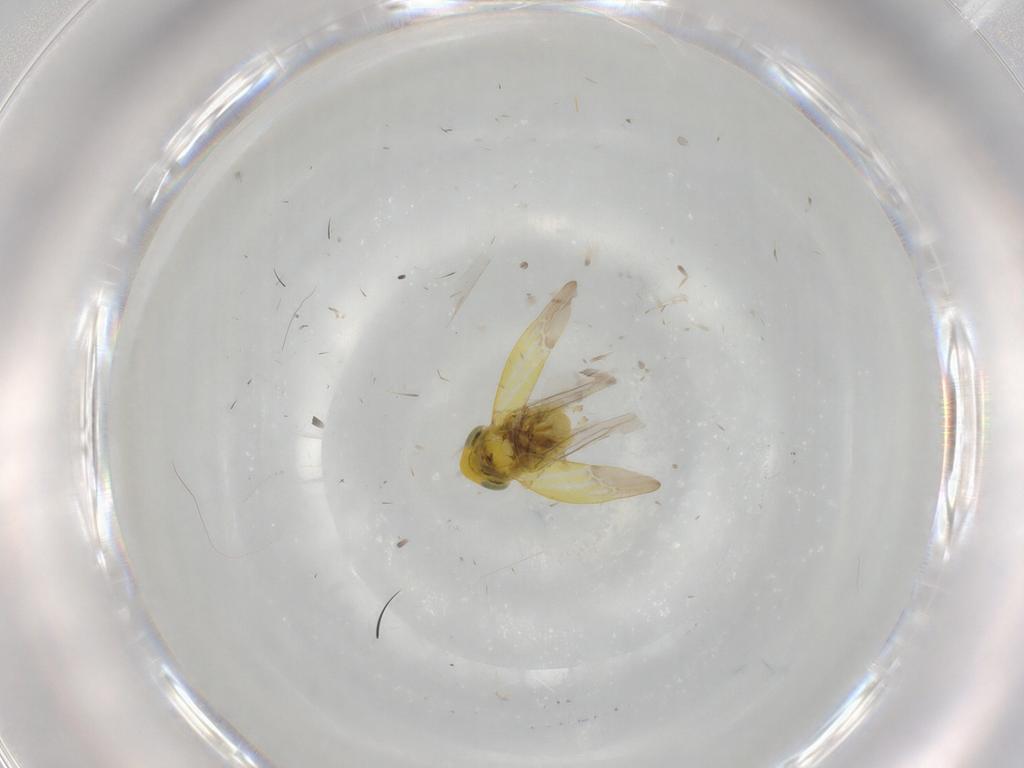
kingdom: Animalia
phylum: Arthropoda
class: Insecta
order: Hemiptera
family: Cicadellidae
